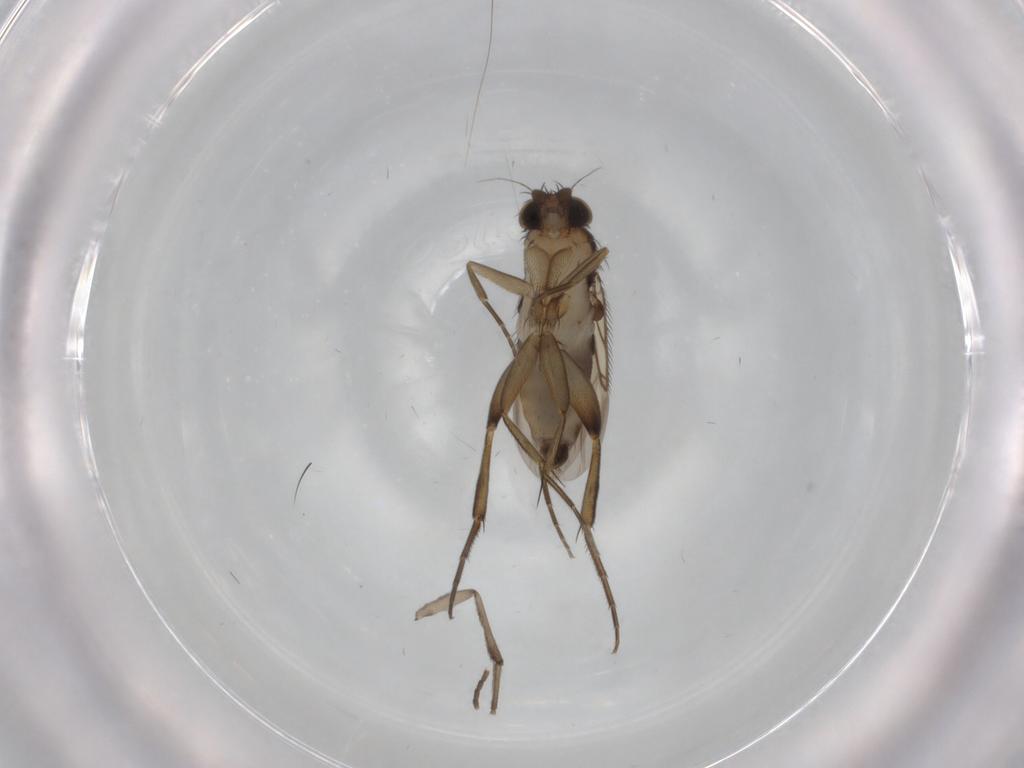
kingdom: Animalia
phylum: Arthropoda
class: Insecta
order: Diptera
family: Phoridae
